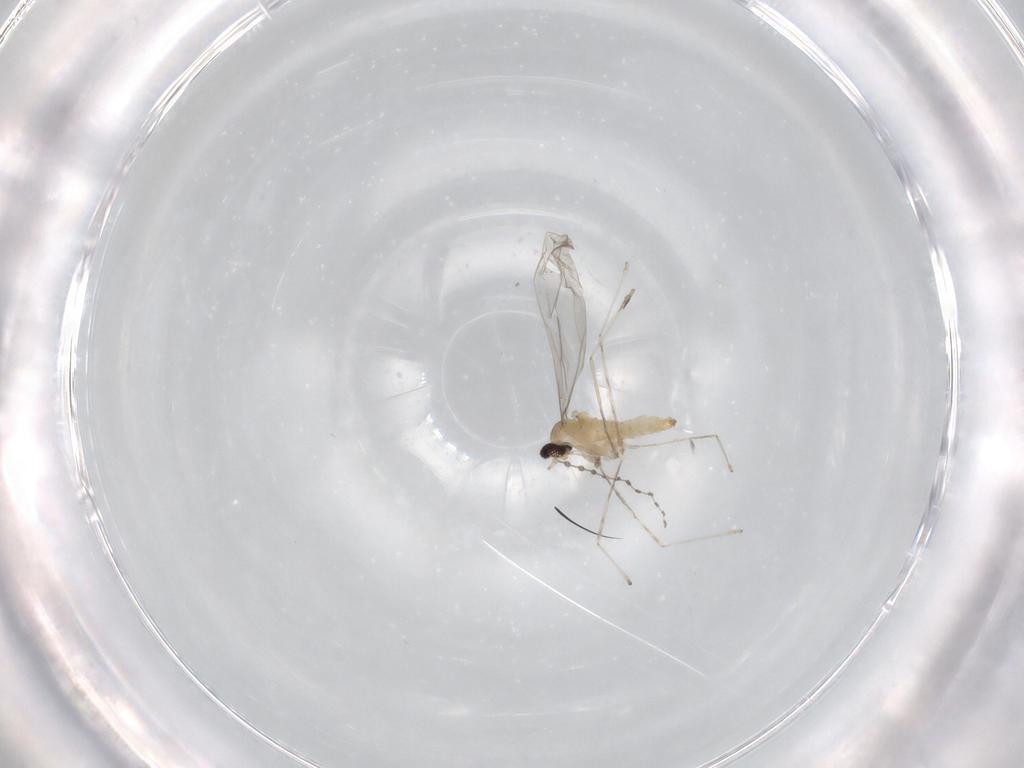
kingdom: Animalia
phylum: Arthropoda
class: Insecta
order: Diptera
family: Cecidomyiidae
